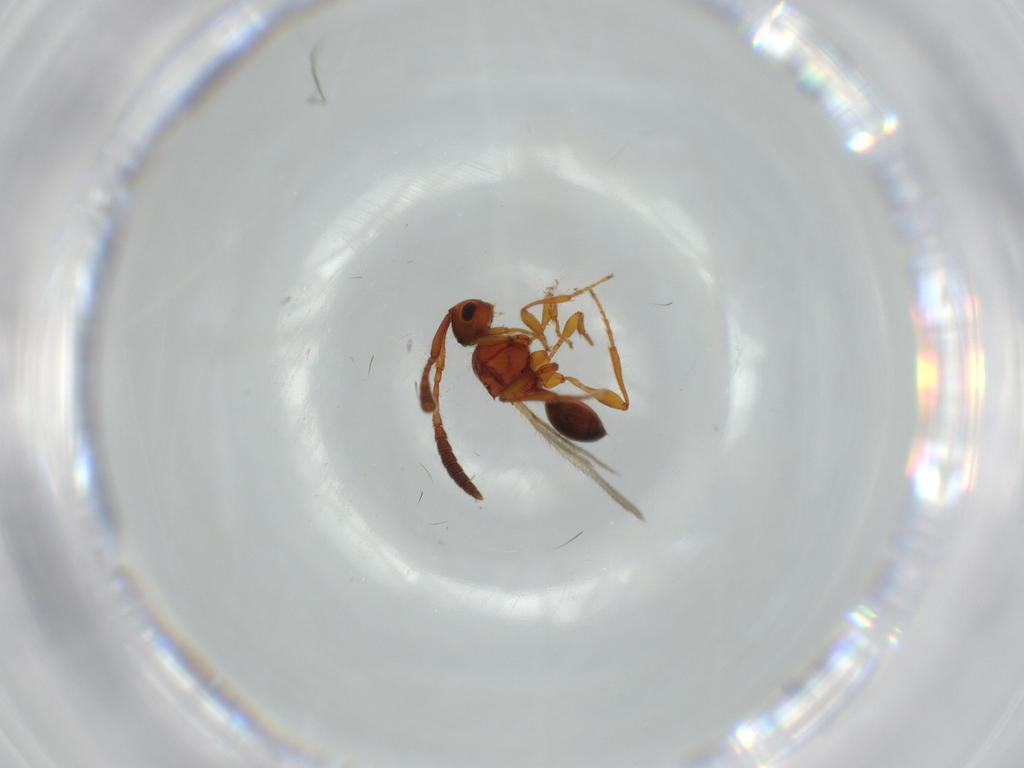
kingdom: Animalia
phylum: Arthropoda
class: Insecta
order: Hymenoptera
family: Diapriidae
